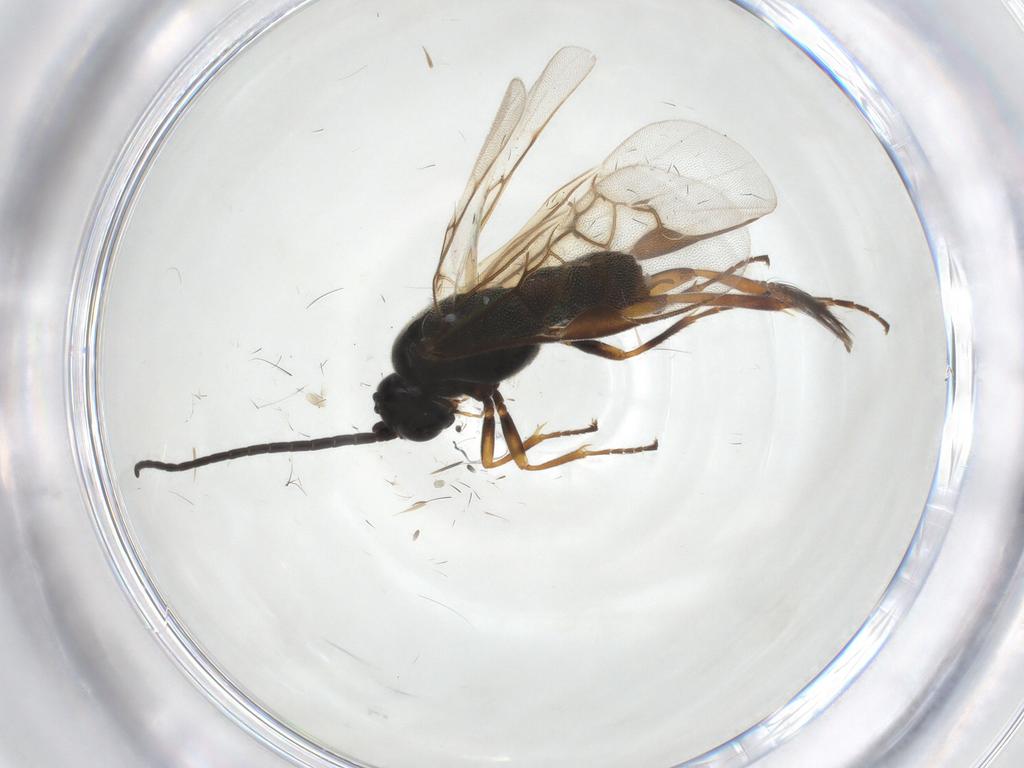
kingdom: Animalia
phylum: Arthropoda
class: Insecta
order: Hymenoptera
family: Braconidae
